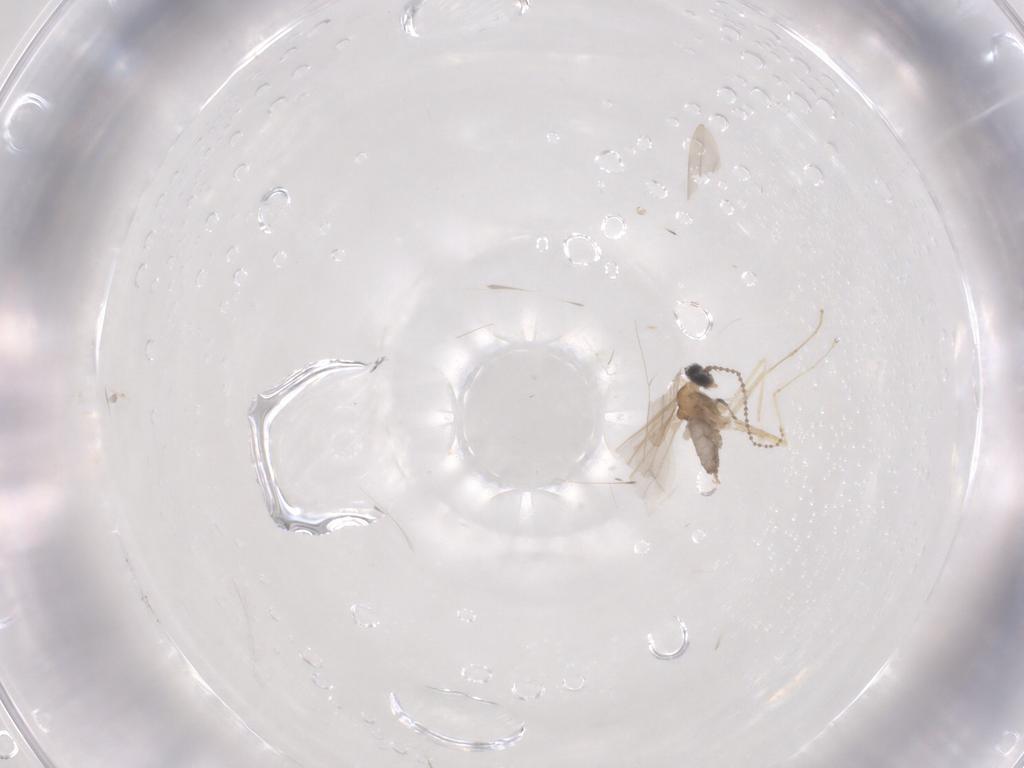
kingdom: Animalia
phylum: Arthropoda
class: Insecta
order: Diptera
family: Cecidomyiidae
